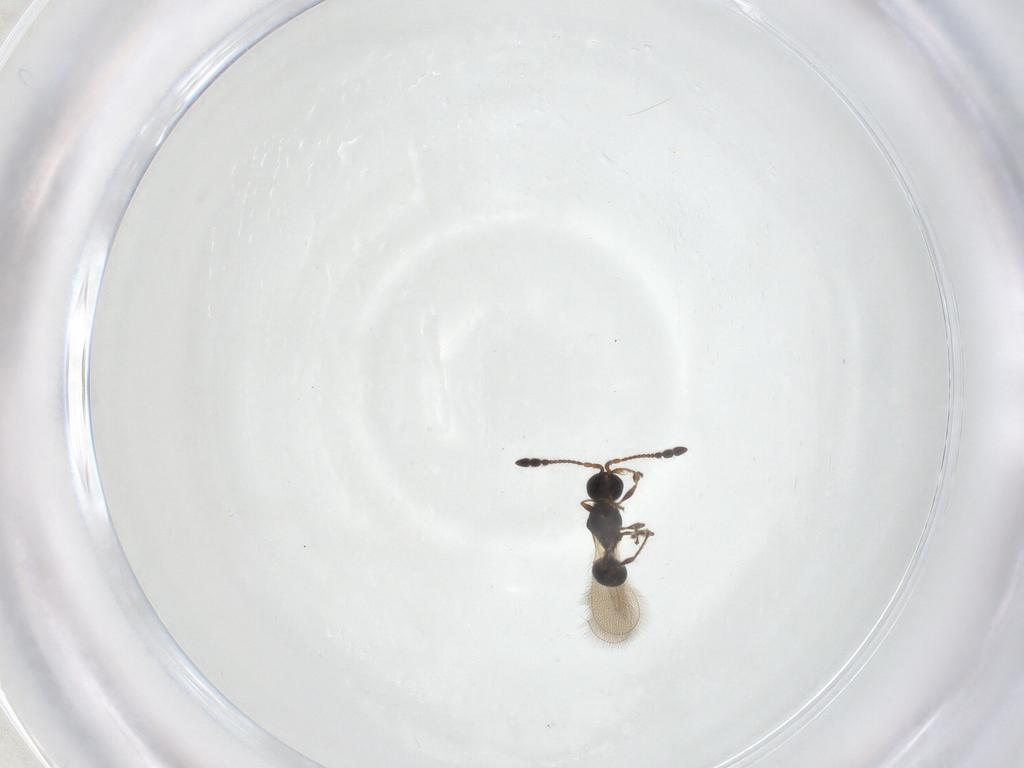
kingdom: Animalia
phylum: Arthropoda
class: Insecta
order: Hymenoptera
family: Diapriidae
